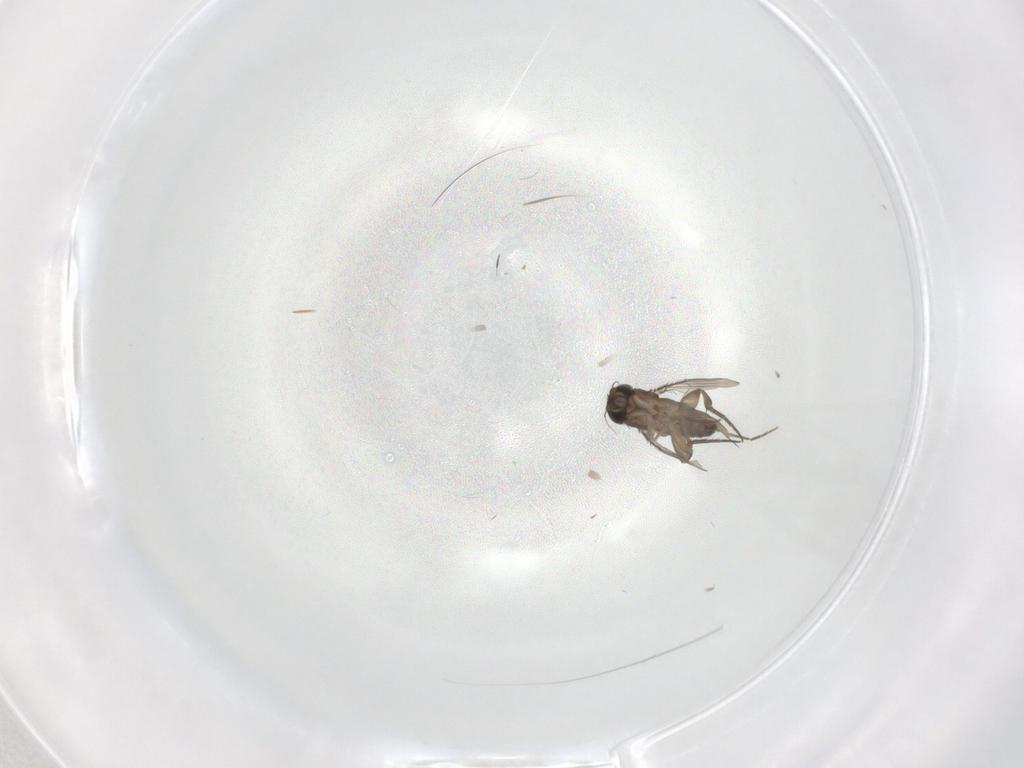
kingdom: Animalia
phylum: Arthropoda
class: Insecta
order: Diptera
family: Phoridae
